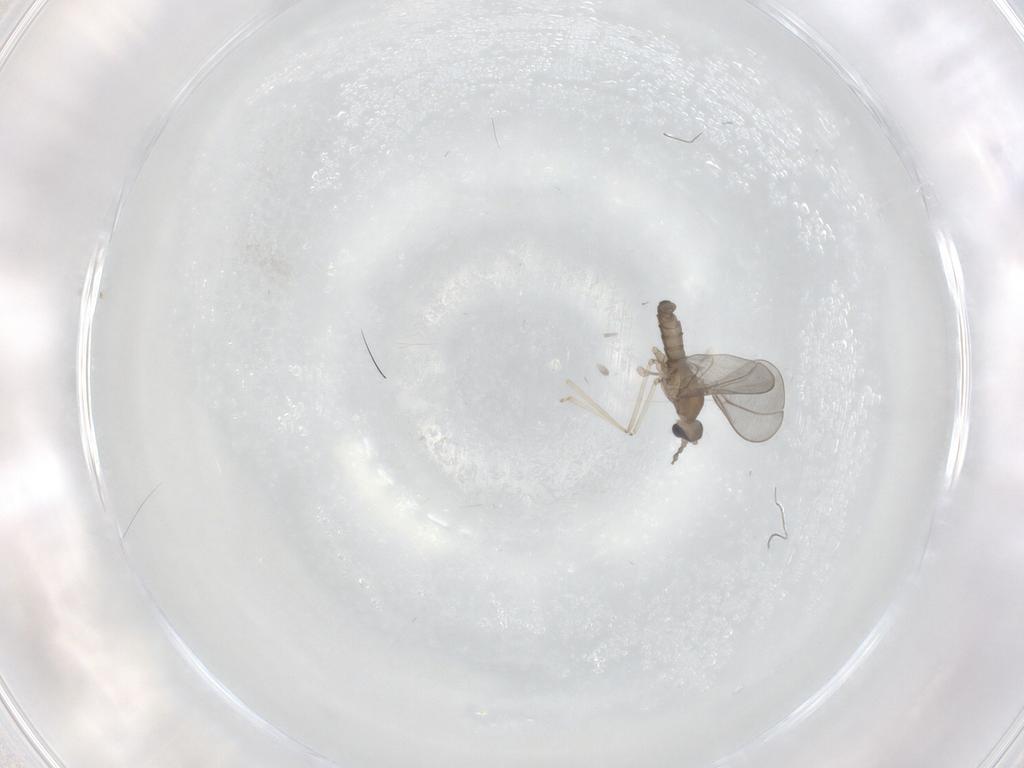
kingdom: Animalia
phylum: Arthropoda
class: Insecta
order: Diptera
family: Cecidomyiidae
